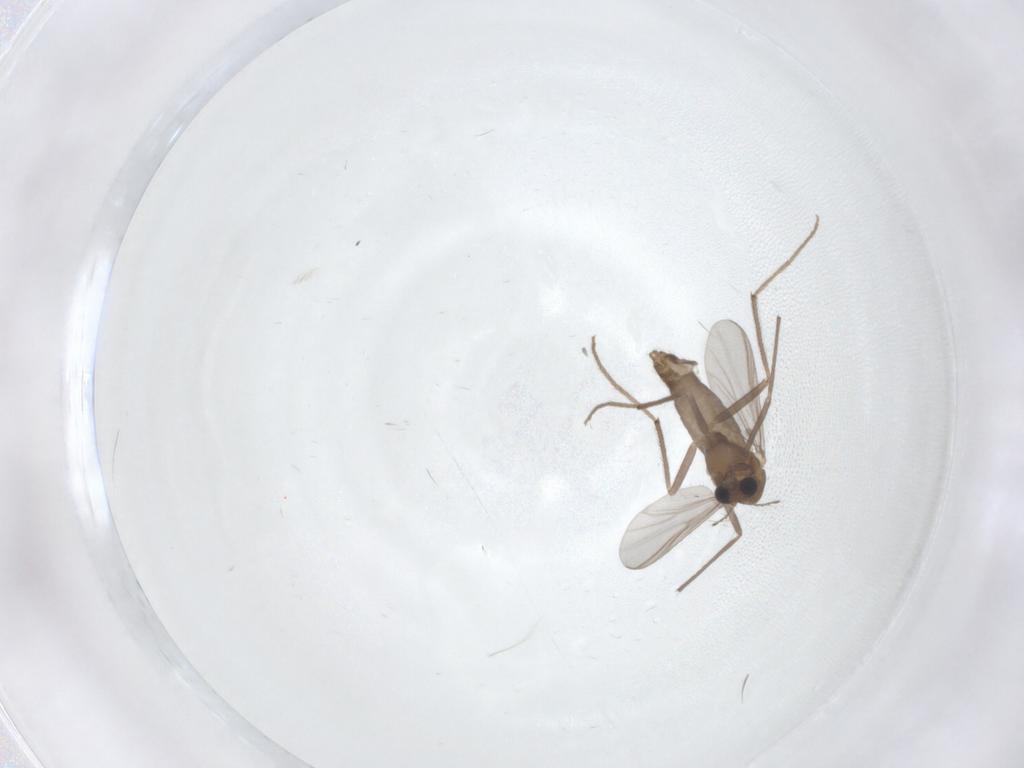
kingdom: Animalia
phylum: Arthropoda
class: Insecta
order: Diptera
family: Chironomidae
